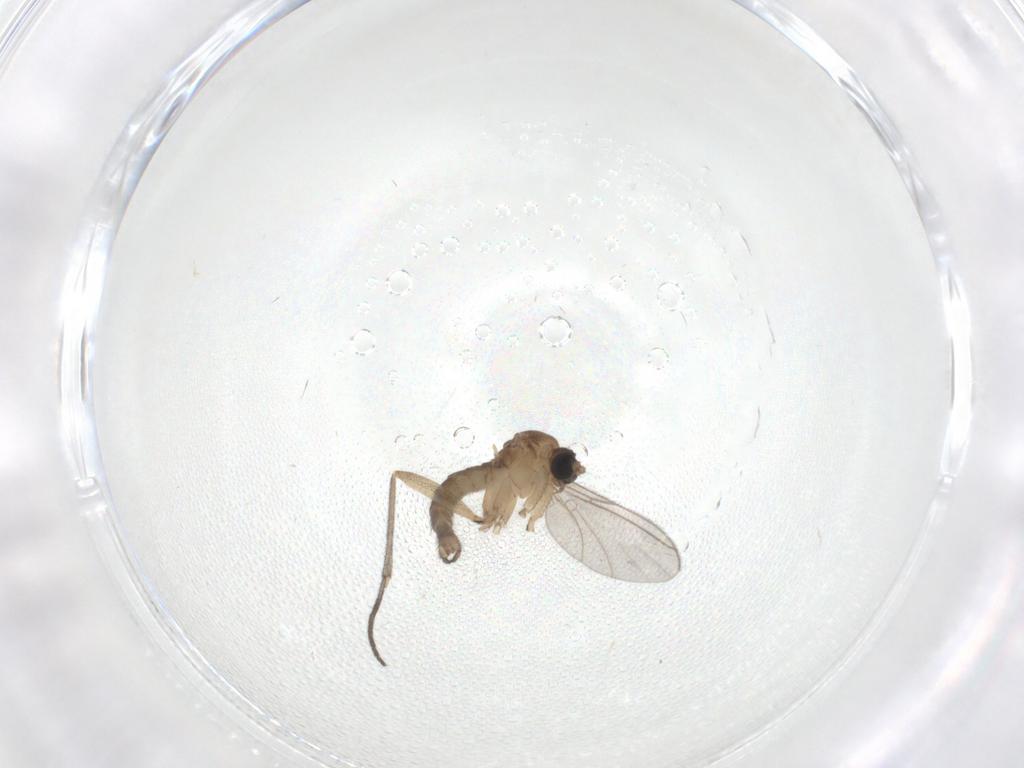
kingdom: Animalia
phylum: Arthropoda
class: Insecta
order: Diptera
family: Sciaridae
